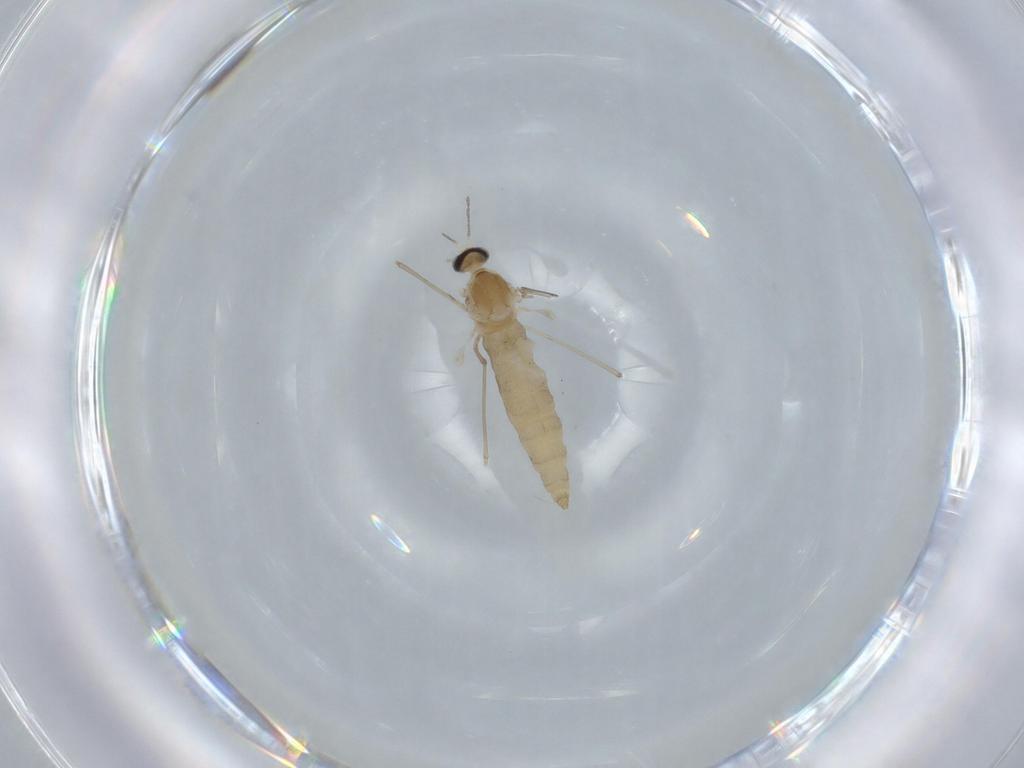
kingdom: Animalia
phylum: Arthropoda
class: Insecta
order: Diptera
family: Cecidomyiidae
